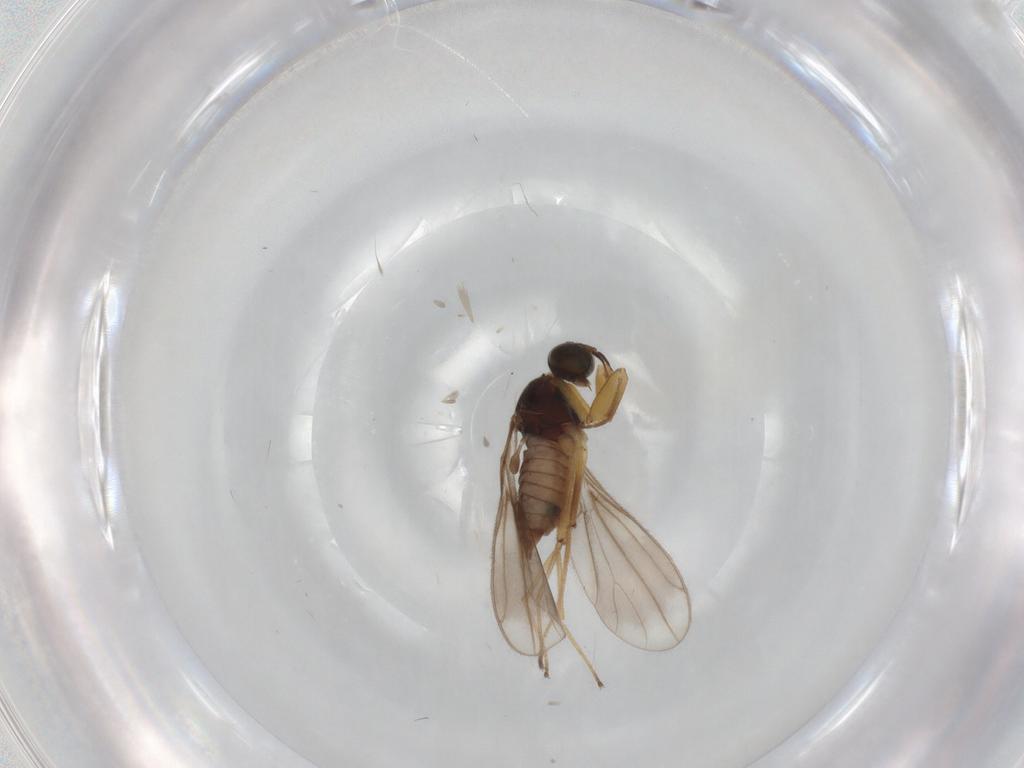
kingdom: Animalia
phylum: Arthropoda
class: Insecta
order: Diptera
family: Empididae
